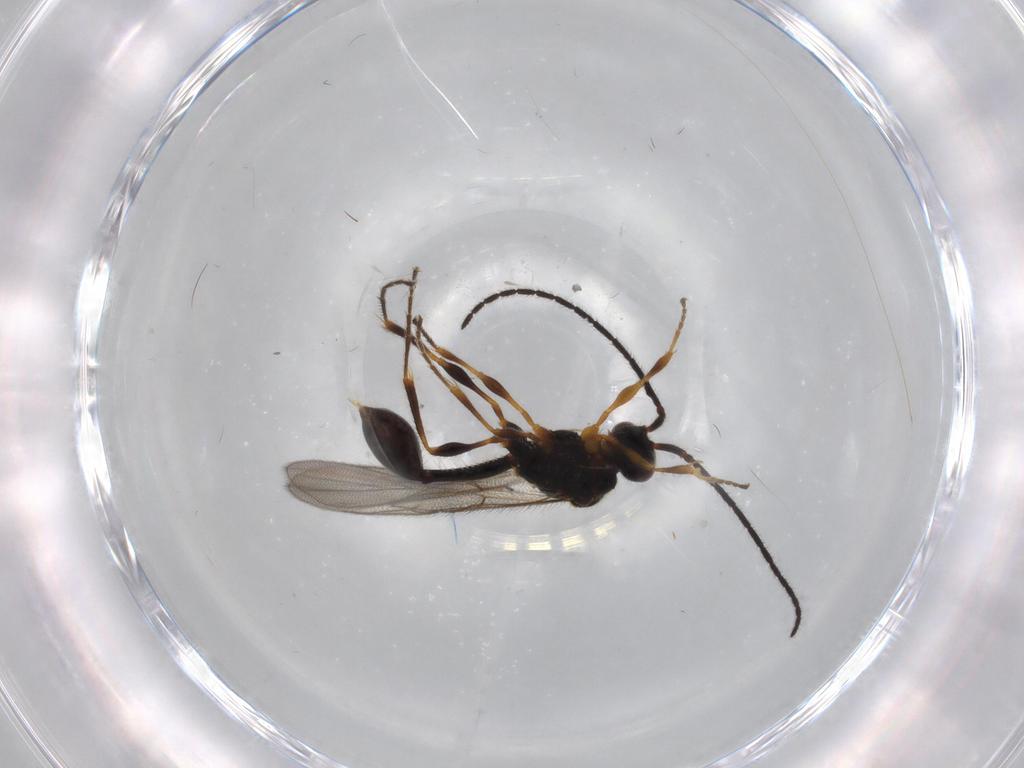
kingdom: Animalia
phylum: Arthropoda
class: Insecta
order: Hymenoptera
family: Diapriidae
